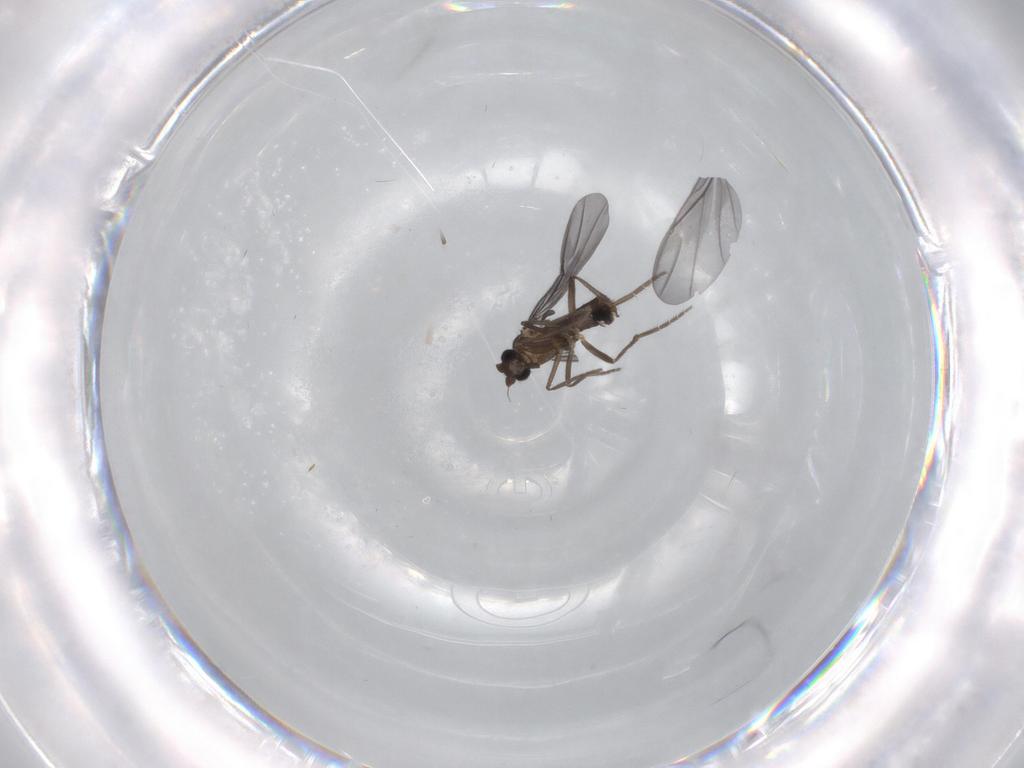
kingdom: Animalia
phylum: Arthropoda
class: Insecta
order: Diptera
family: Phoridae
